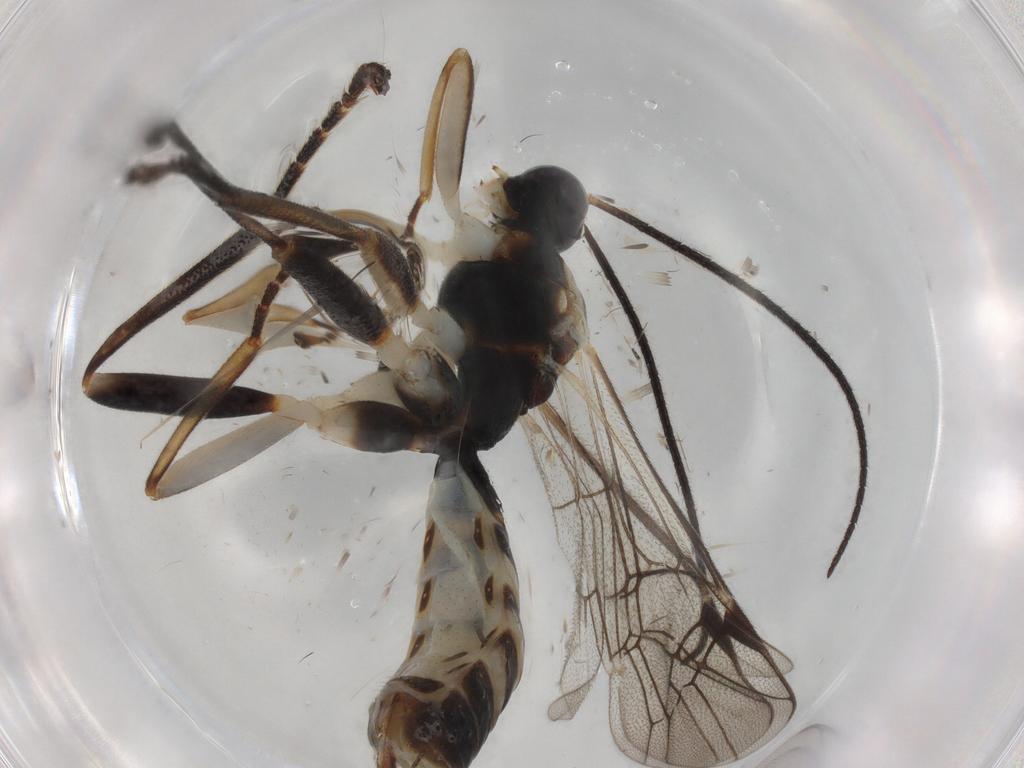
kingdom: Animalia
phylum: Arthropoda
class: Insecta
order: Hymenoptera
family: Ichneumonidae
